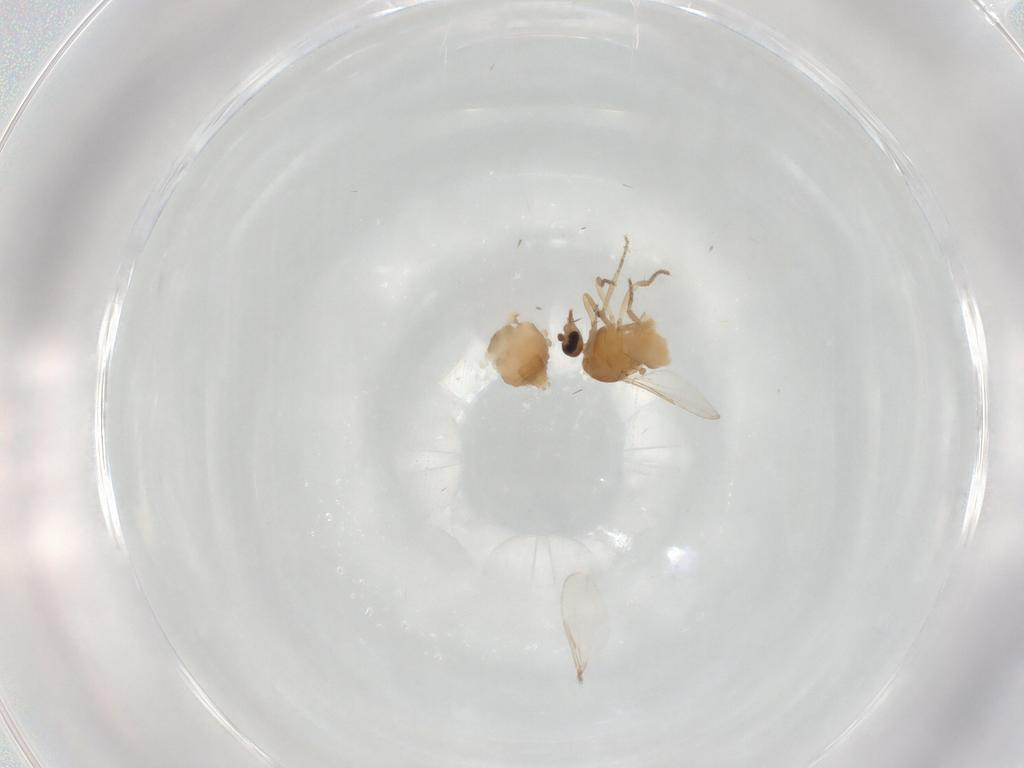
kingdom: Animalia
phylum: Arthropoda
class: Insecta
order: Diptera
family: Ceratopogonidae
